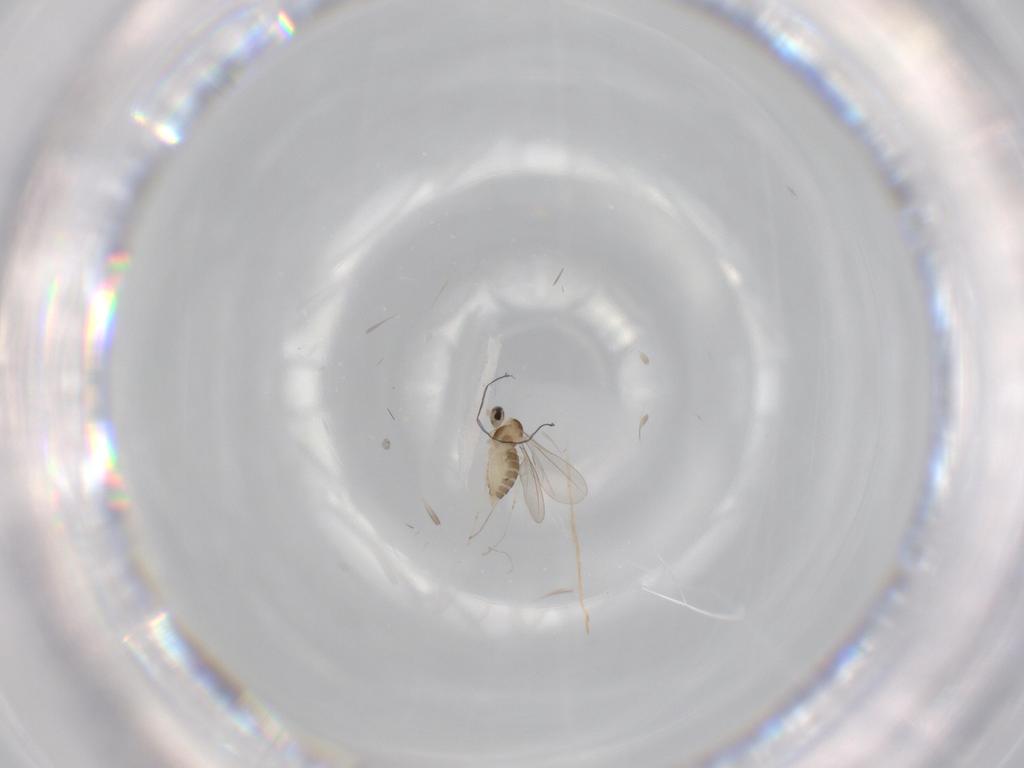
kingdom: Animalia
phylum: Arthropoda
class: Insecta
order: Diptera
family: Cecidomyiidae
